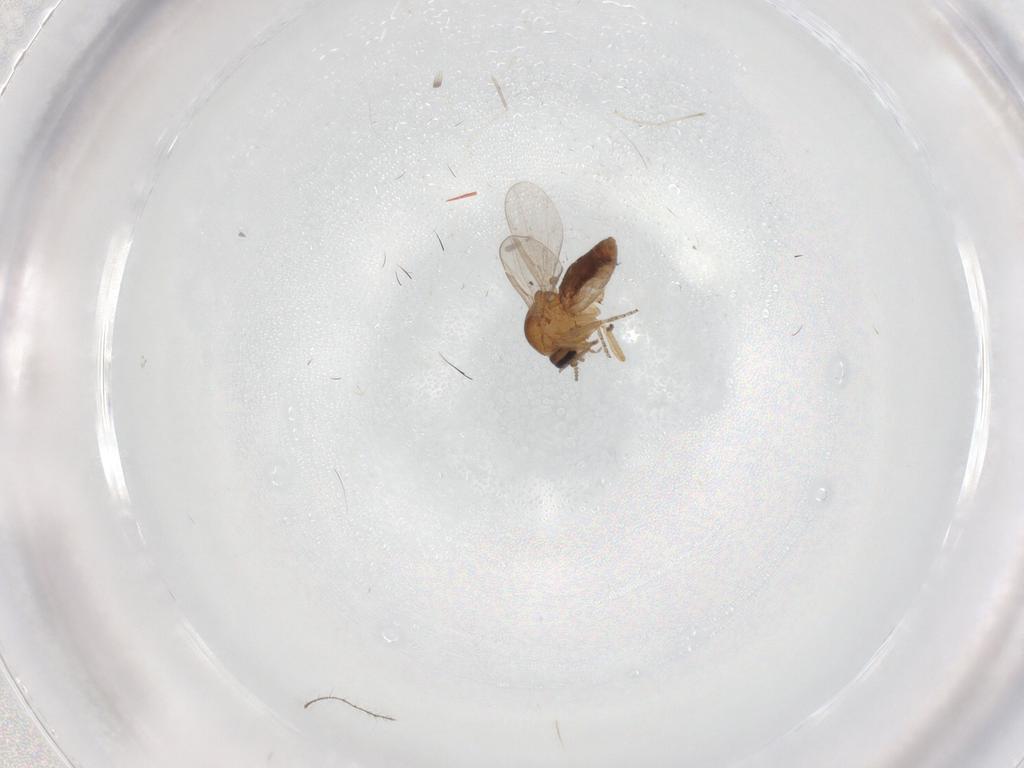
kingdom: Animalia
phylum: Arthropoda
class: Insecta
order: Diptera
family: Ceratopogonidae
